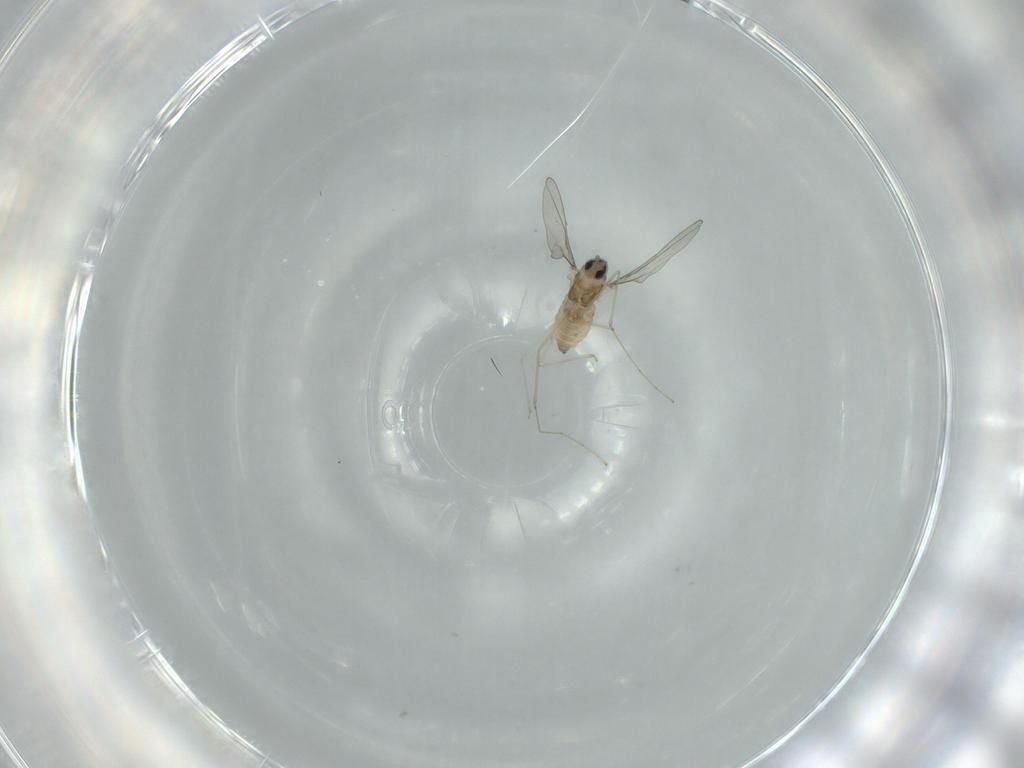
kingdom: Animalia
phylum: Arthropoda
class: Insecta
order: Diptera
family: Cecidomyiidae
